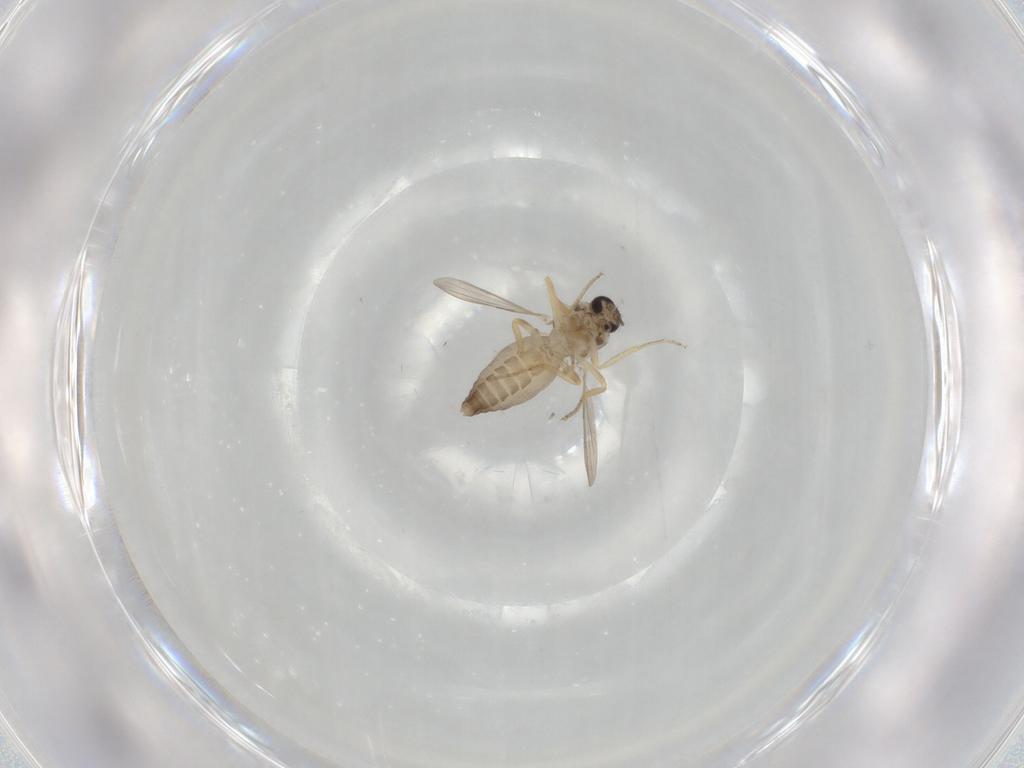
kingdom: Animalia
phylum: Arthropoda
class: Insecta
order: Diptera
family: Ceratopogonidae
